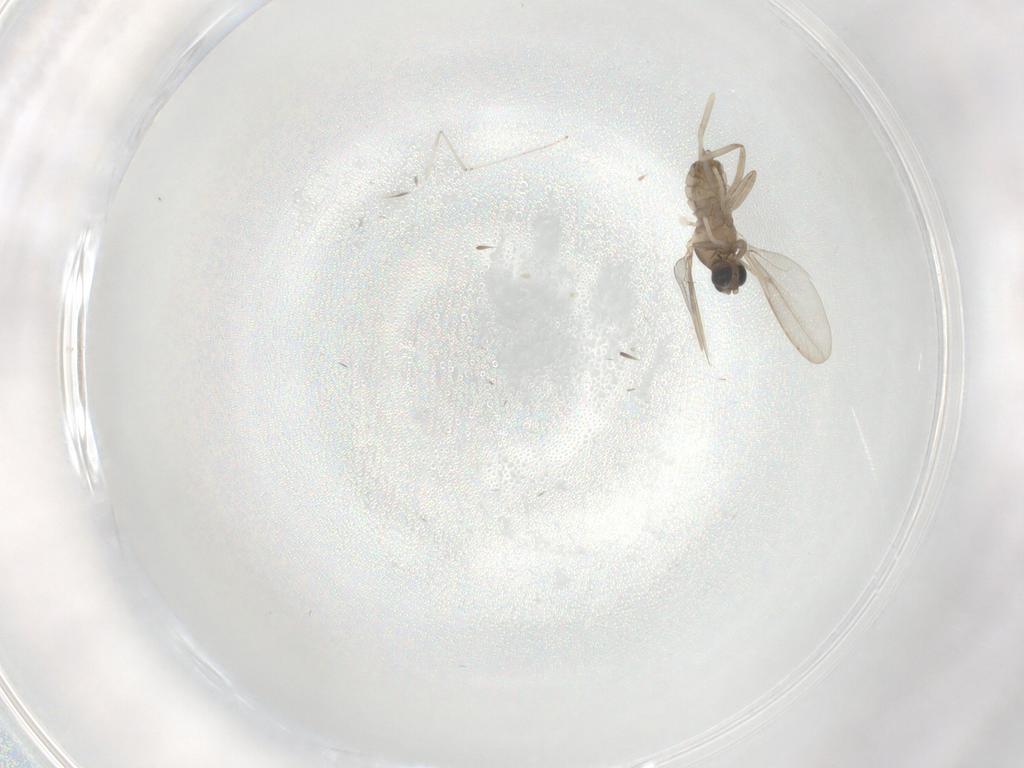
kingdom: Animalia
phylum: Arthropoda
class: Insecta
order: Diptera
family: Cecidomyiidae
